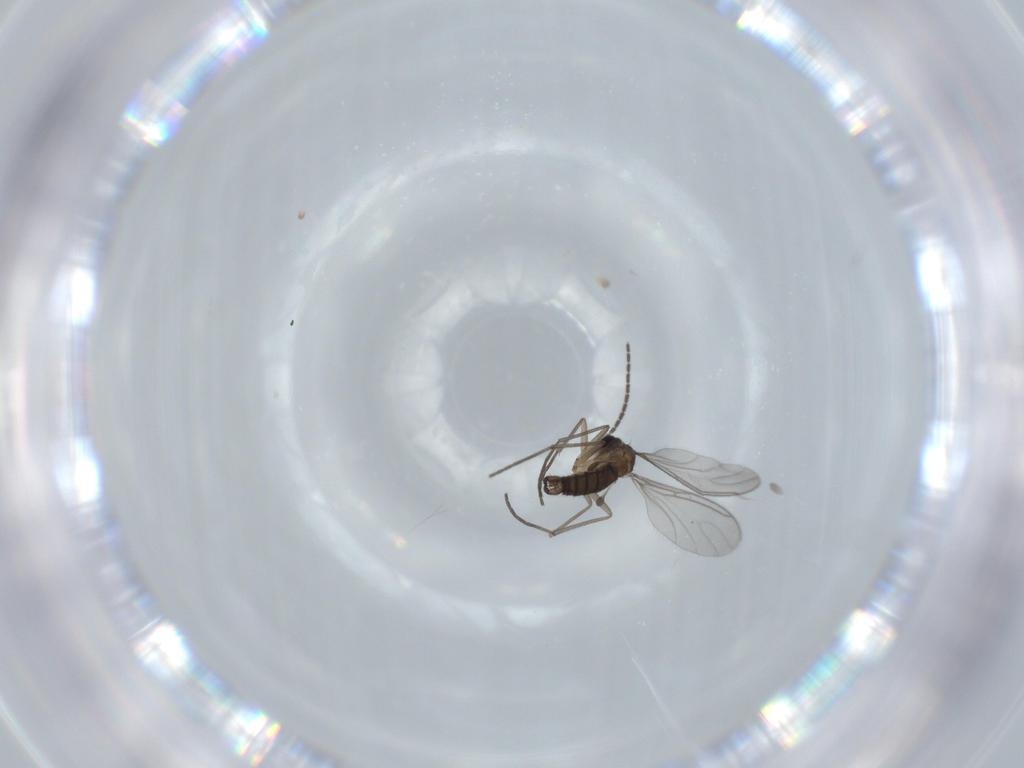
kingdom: Animalia
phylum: Arthropoda
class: Insecta
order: Diptera
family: Sciaridae
